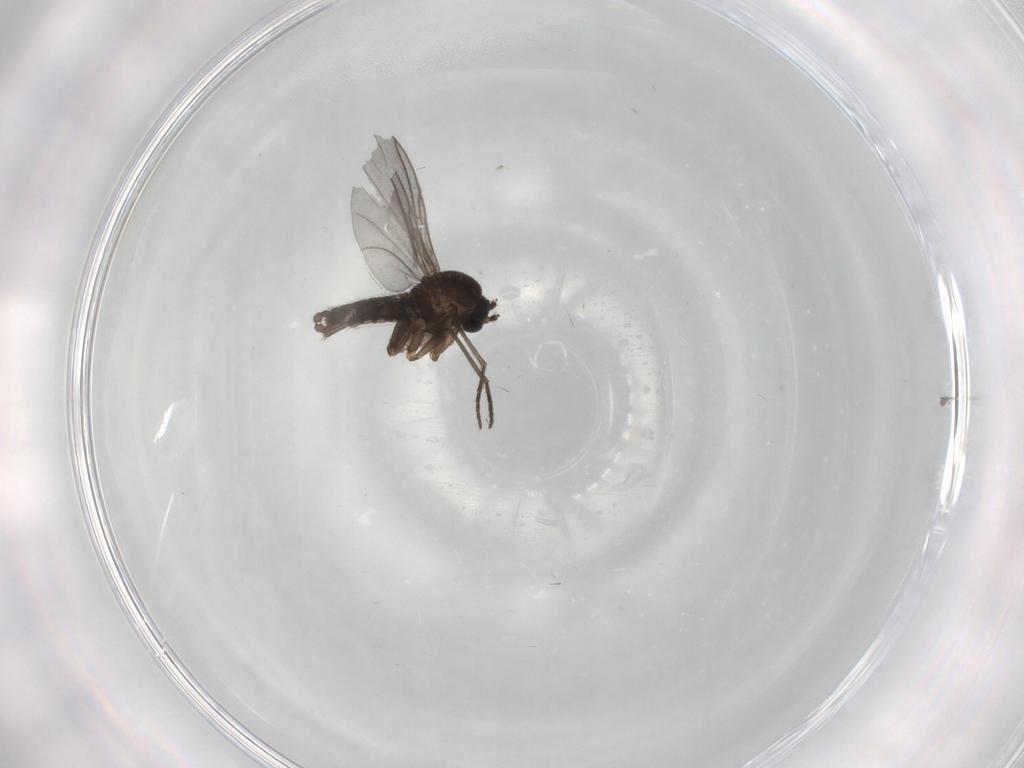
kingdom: Animalia
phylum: Arthropoda
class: Insecta
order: Diptera
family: Sciaridae
